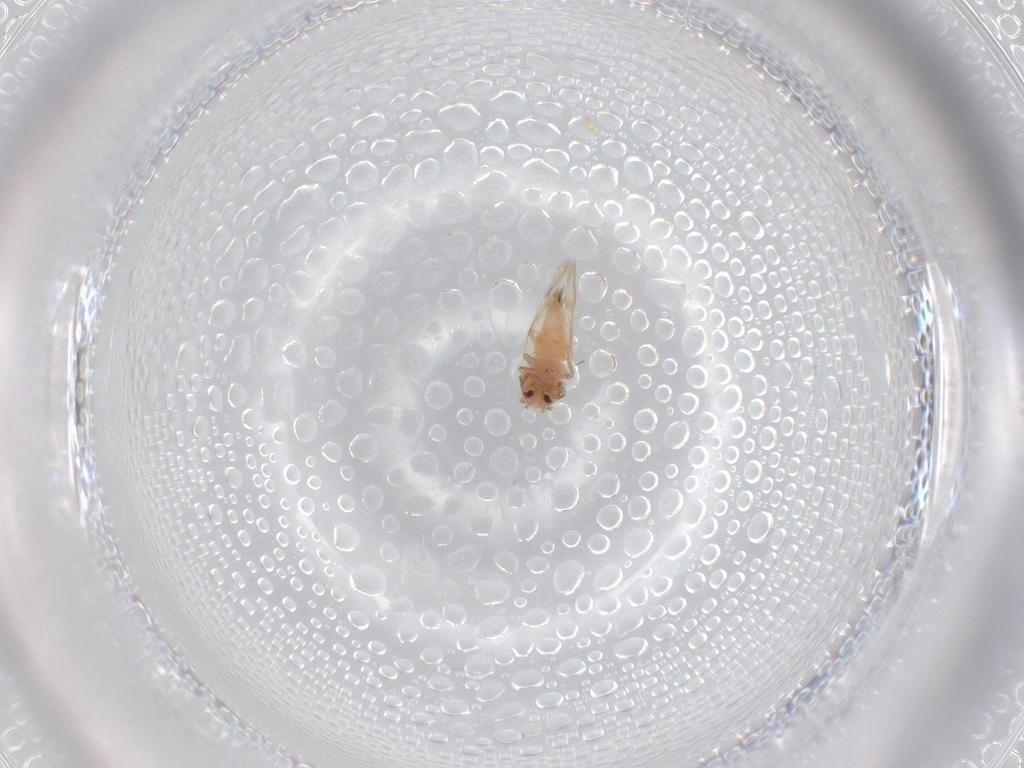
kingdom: Animalia
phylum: Arthropoda
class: Insecta
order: Hemiptera
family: Aleyrodidae
